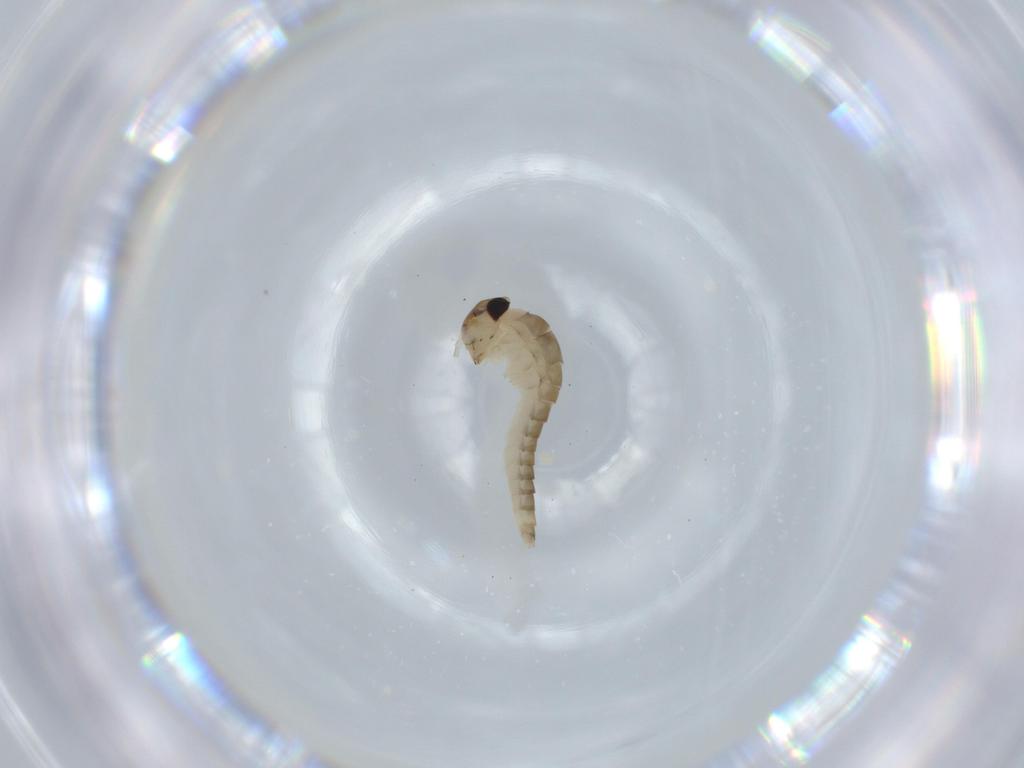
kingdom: Animalia
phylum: Arthropoda
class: Insecta
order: Ephemeroptera
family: Baetidae
